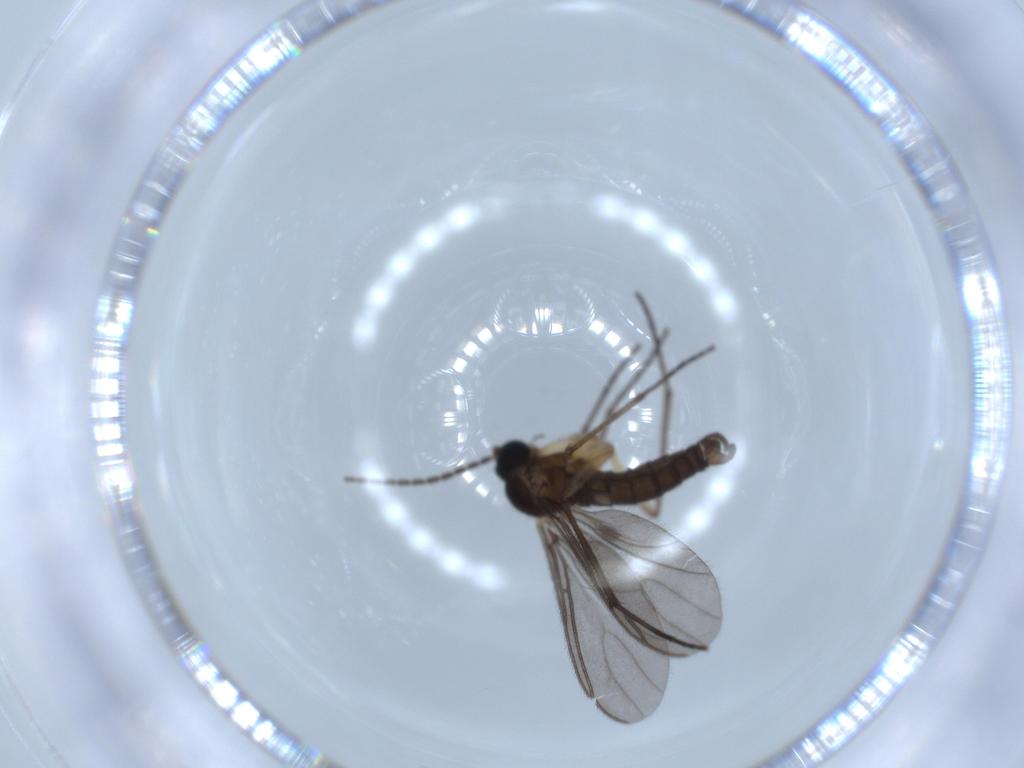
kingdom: Animalia
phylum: Arthropoda
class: Insecta
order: Diptera
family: Sciaridae
